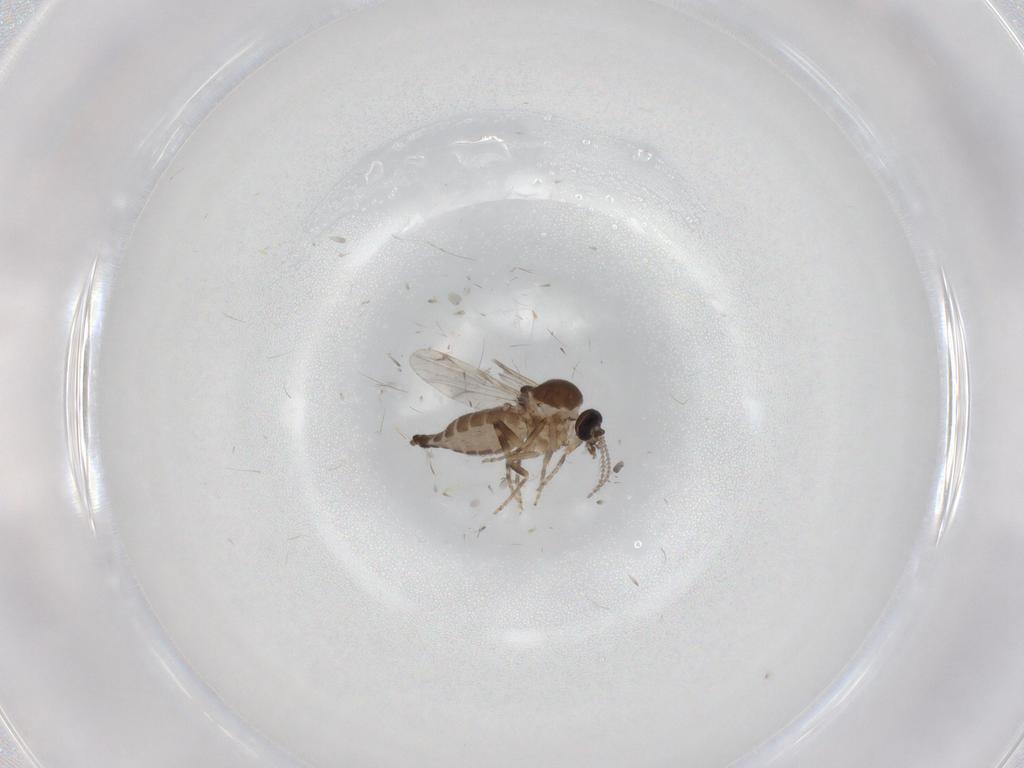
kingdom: Animalia
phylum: Arthropoda
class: Insecta
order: Diptera
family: Ceratopogonidae
